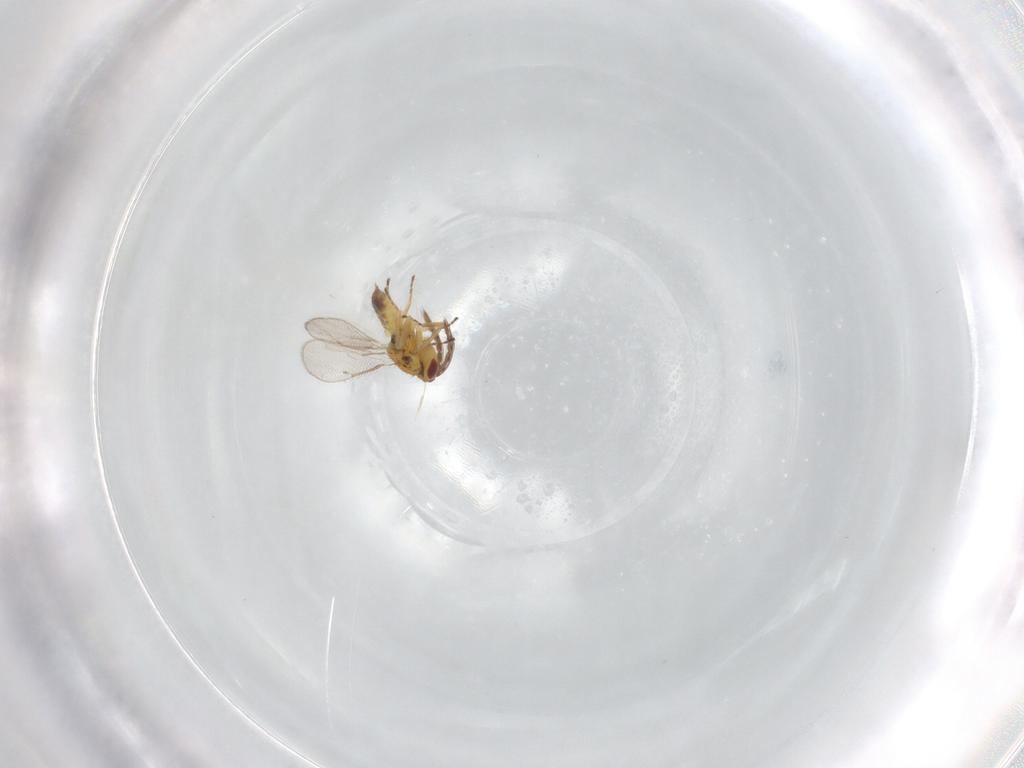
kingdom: Animalia
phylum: Arthropoda
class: Insecta
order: Hymenoptera
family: Eulophidae
